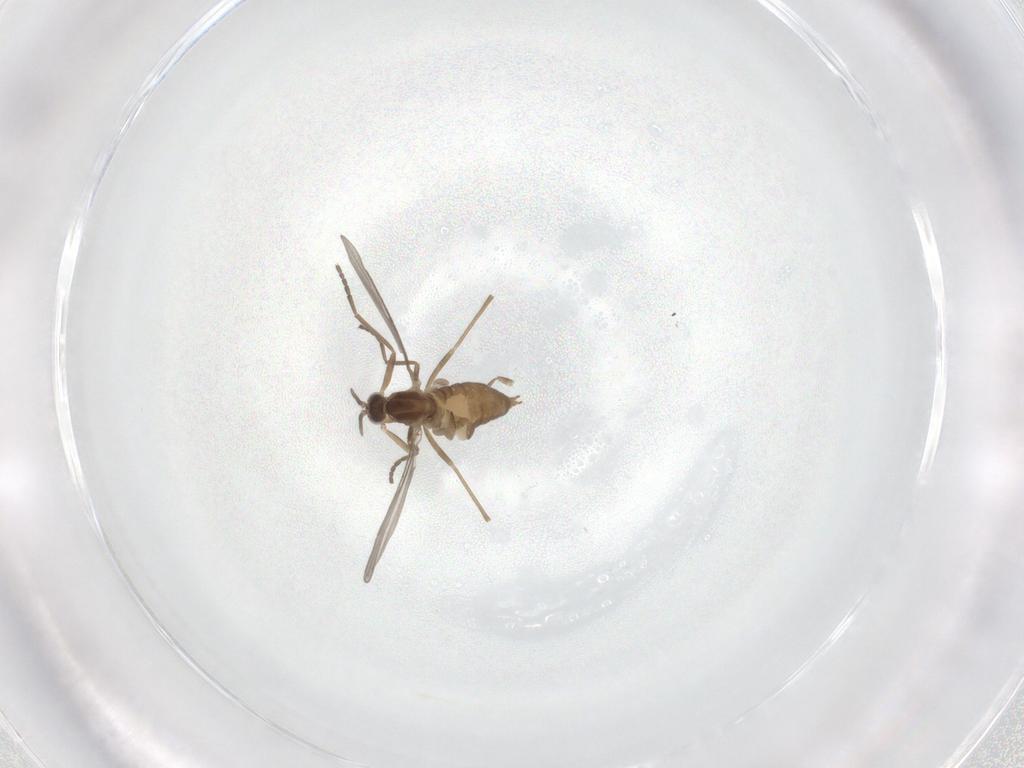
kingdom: Animalia
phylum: Arthropoda
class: Insecta
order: Diptera
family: Cecidomyiidae
